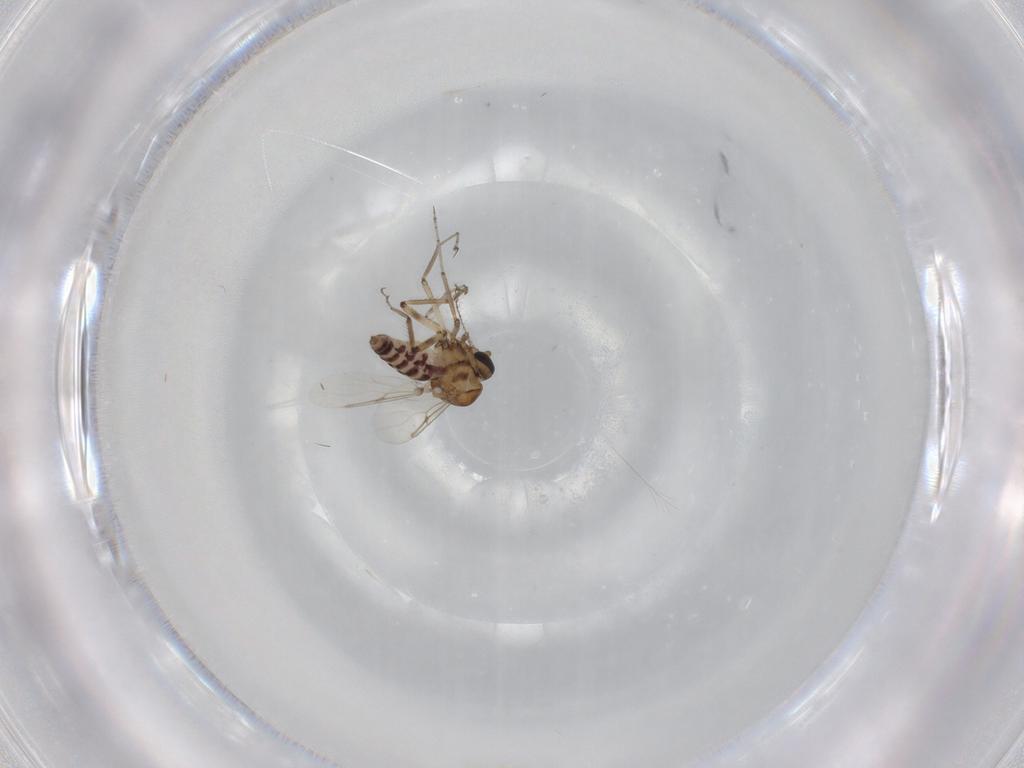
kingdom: Animalia
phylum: Arthropoda
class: Insecta
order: Diptera
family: Ceratopogonidae
